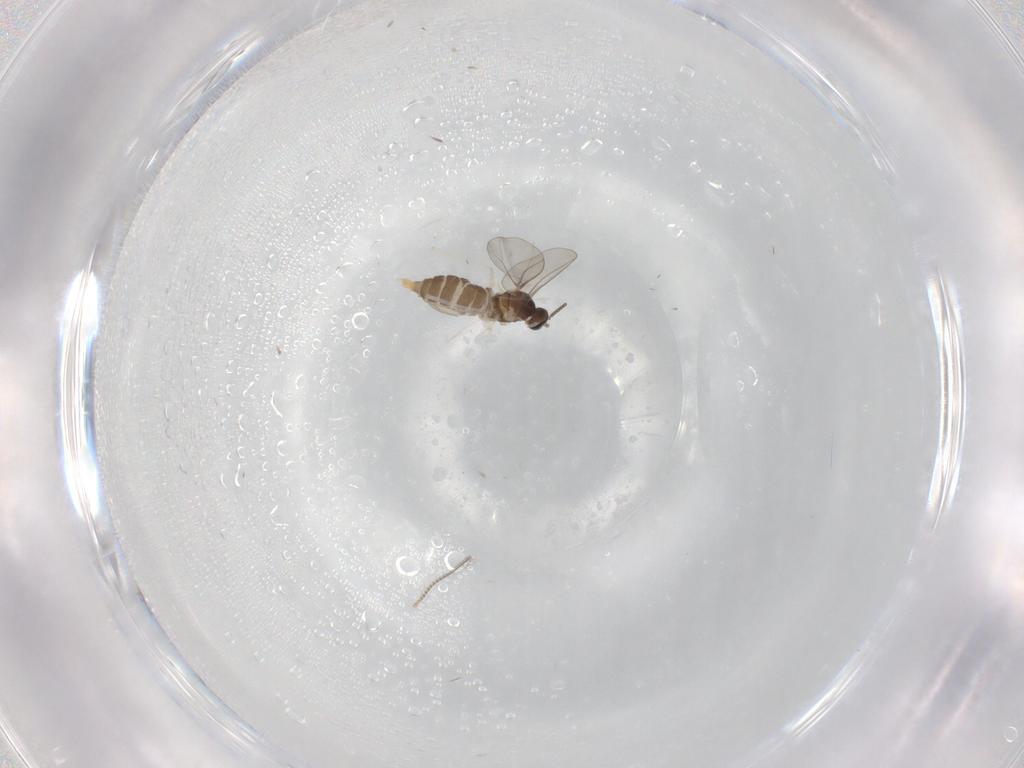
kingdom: Animalia
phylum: Arthropoda
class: Insecta
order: Diptera
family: Cecidomyiidae
